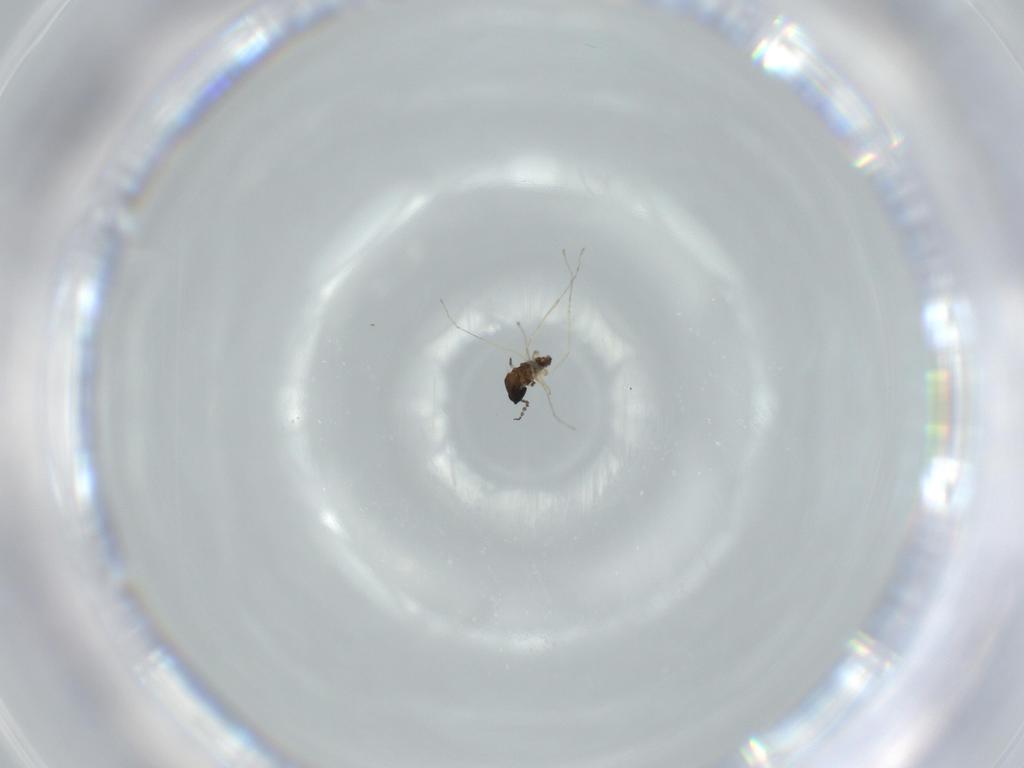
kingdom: Animalia
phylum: Arthropoda
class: Insecta
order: Diptera
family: Cecidomyiidae
